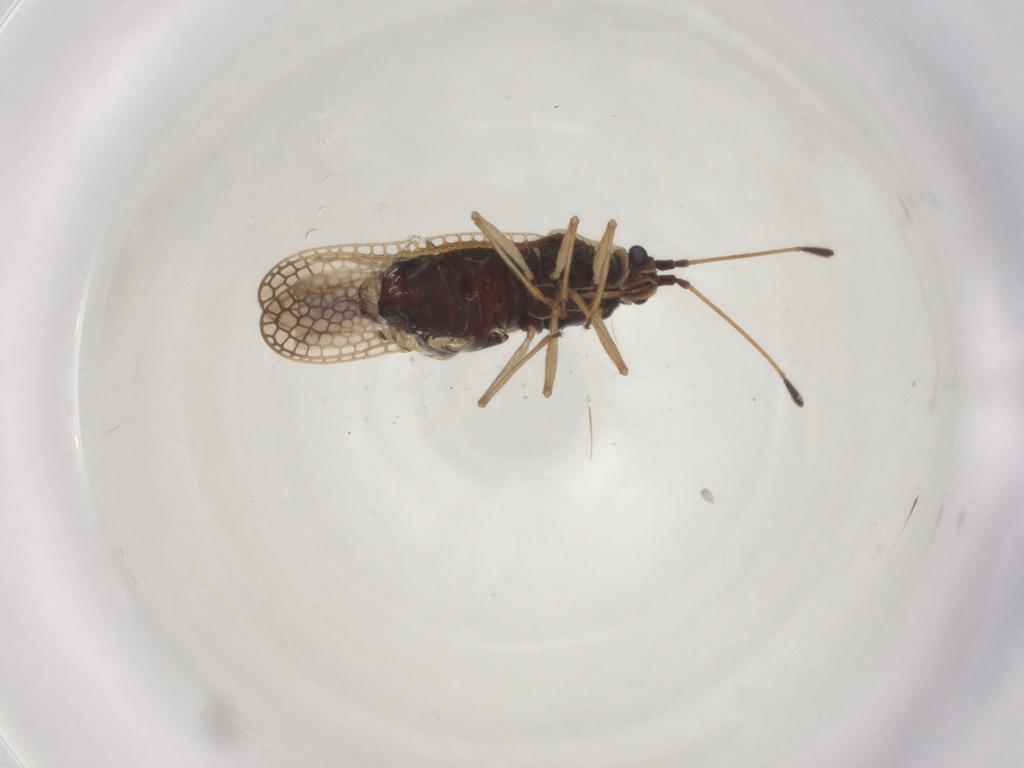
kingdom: Animalia
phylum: Arthropoda
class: Insecta
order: Hemiptera
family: Tingidae
